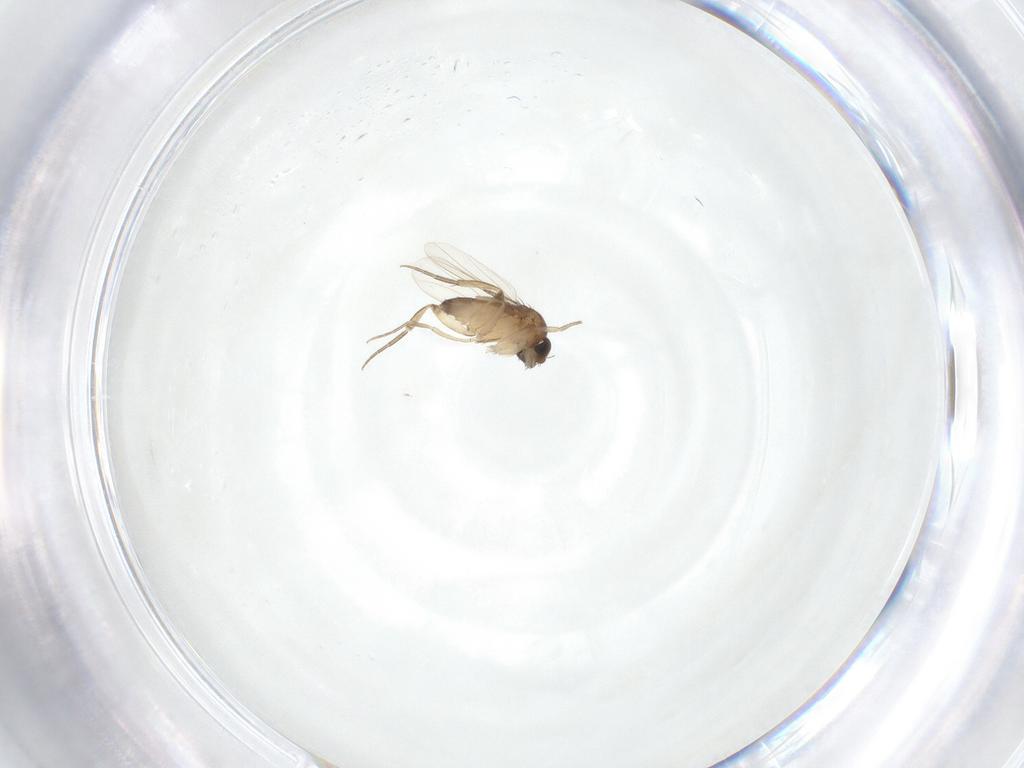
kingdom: Animalia
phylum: Arthropoda
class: Insecta
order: Diptera
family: Phoridae
